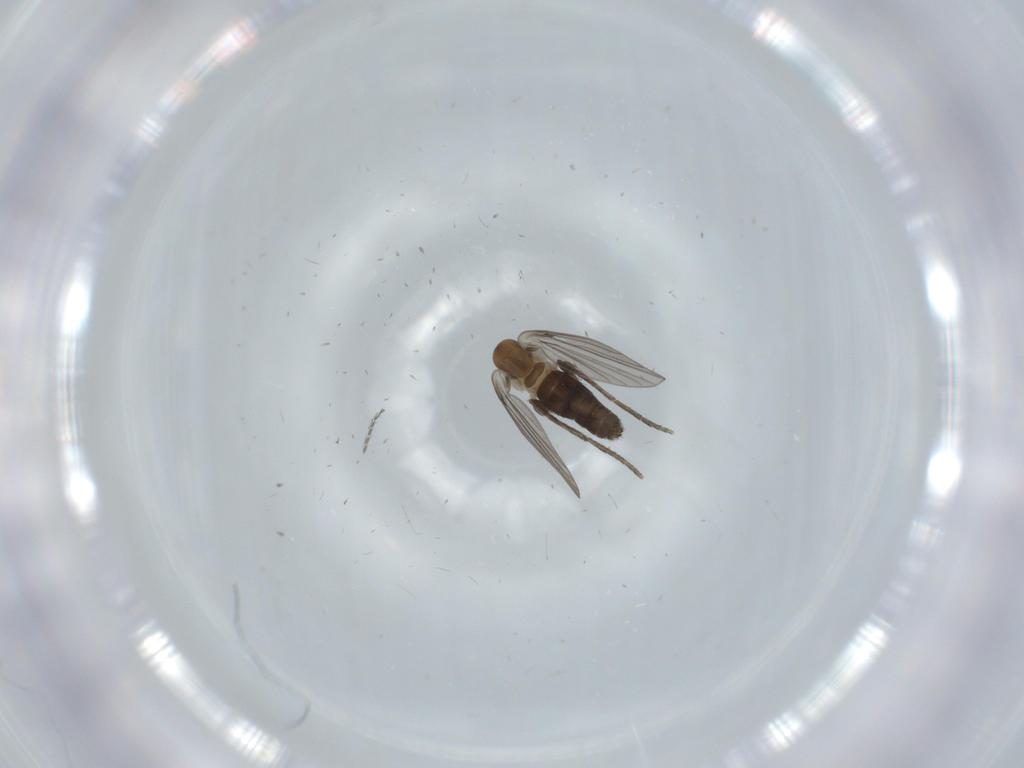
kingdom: Animalia
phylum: Arthropoda
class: Insecta
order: Diptera
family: Psychodidae
